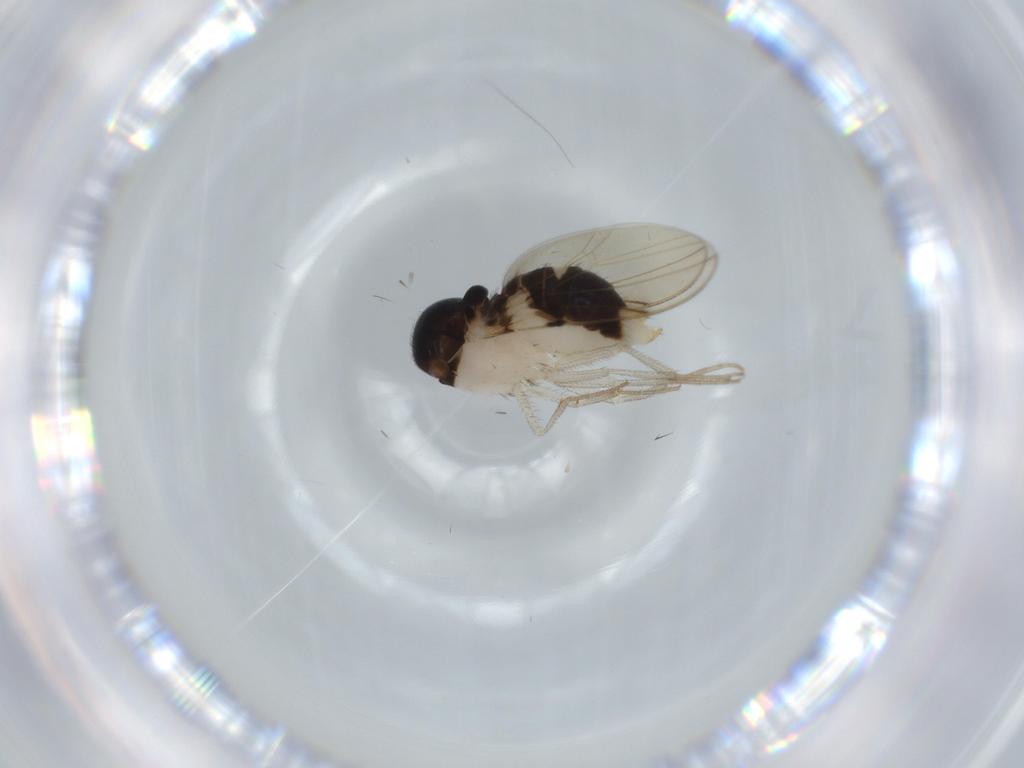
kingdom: Animalia
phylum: Arthropoda
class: Insecta
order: Diptera
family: Drosophilidae
